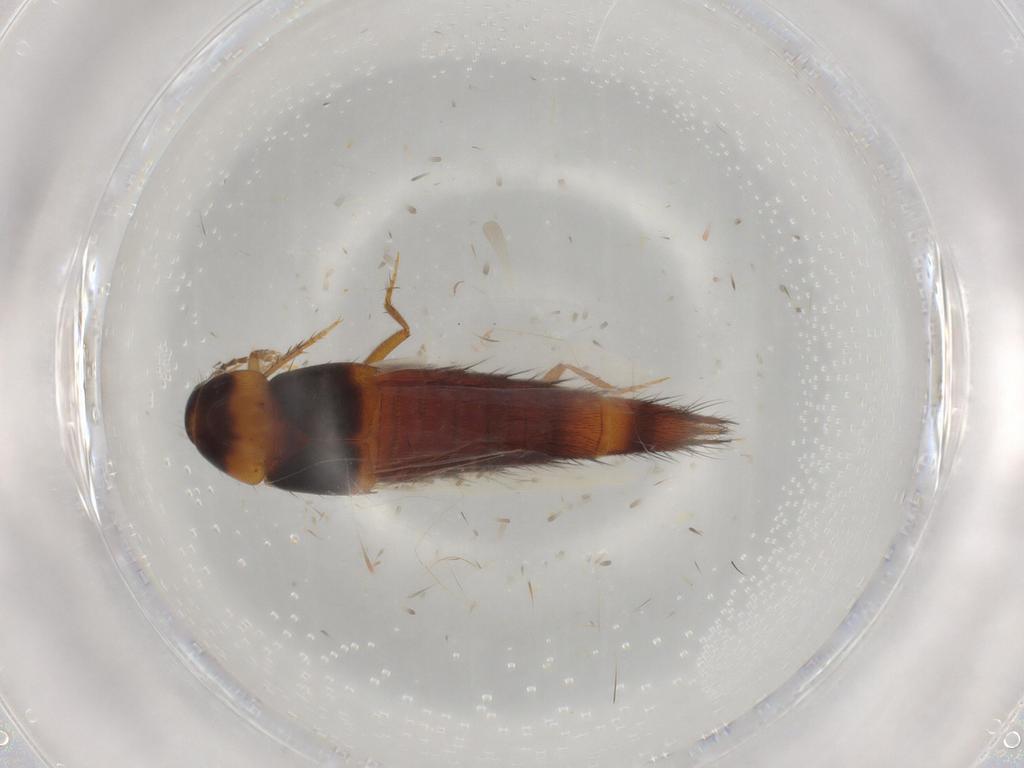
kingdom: Animalia
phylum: Arthropoda
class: Insecta
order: Coleoptera
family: Staphylinidae
